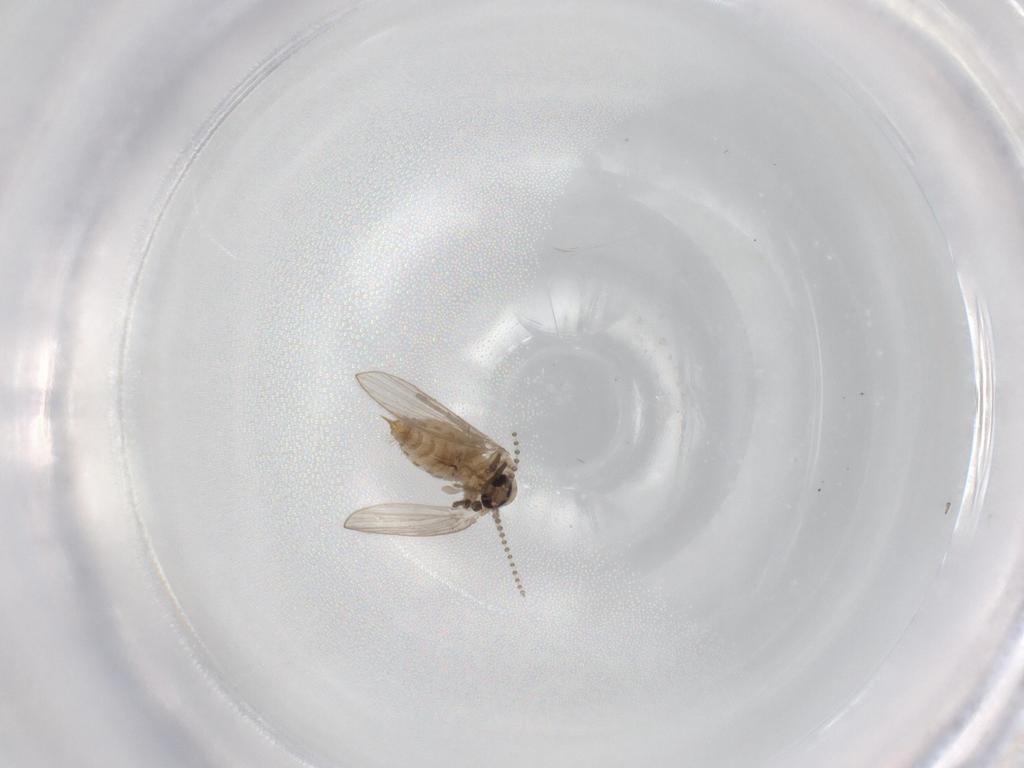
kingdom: Animalia
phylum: Arthropoda
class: Insecta
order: Diptera
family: Psychodidae
